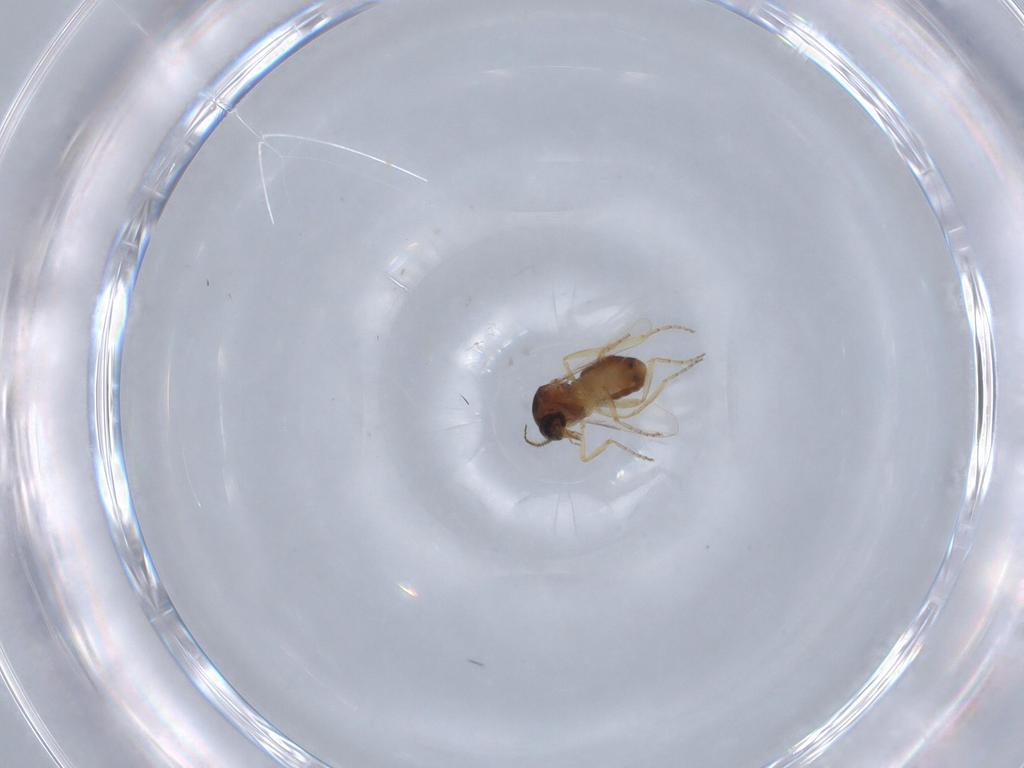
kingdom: Animalia
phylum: Arthropoda
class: Insecta
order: Diptera
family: Ceratopogonidae
